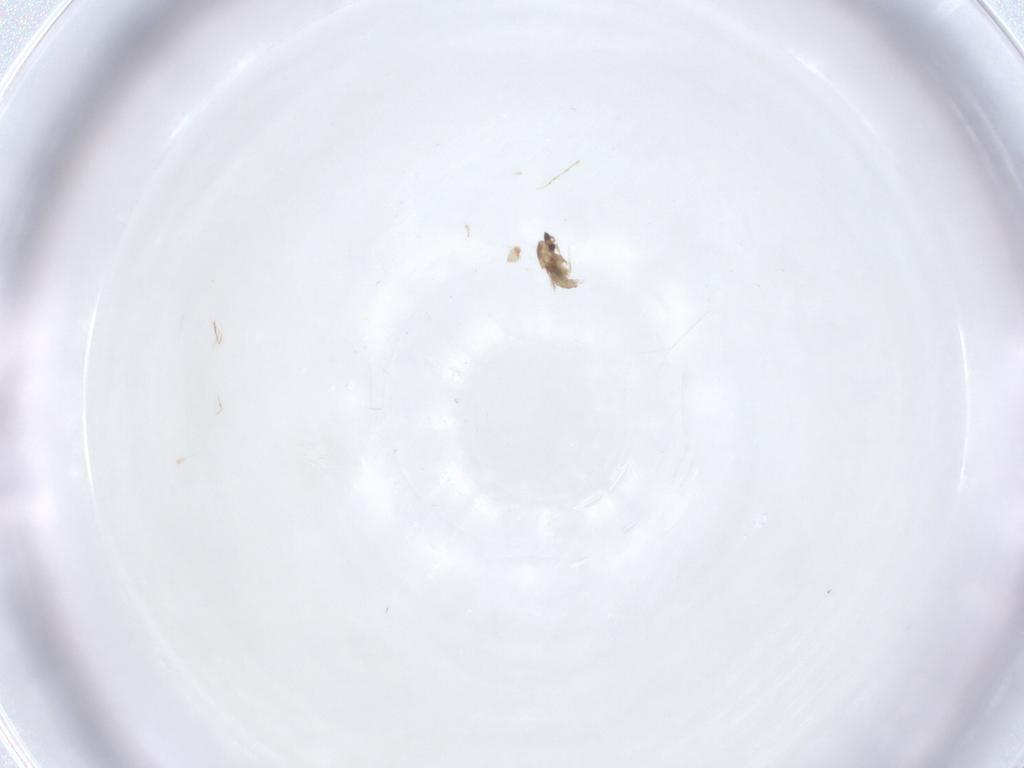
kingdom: Animalia
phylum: Arthropoda
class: Insecta
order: Diptera
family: Cecidomyiidae
